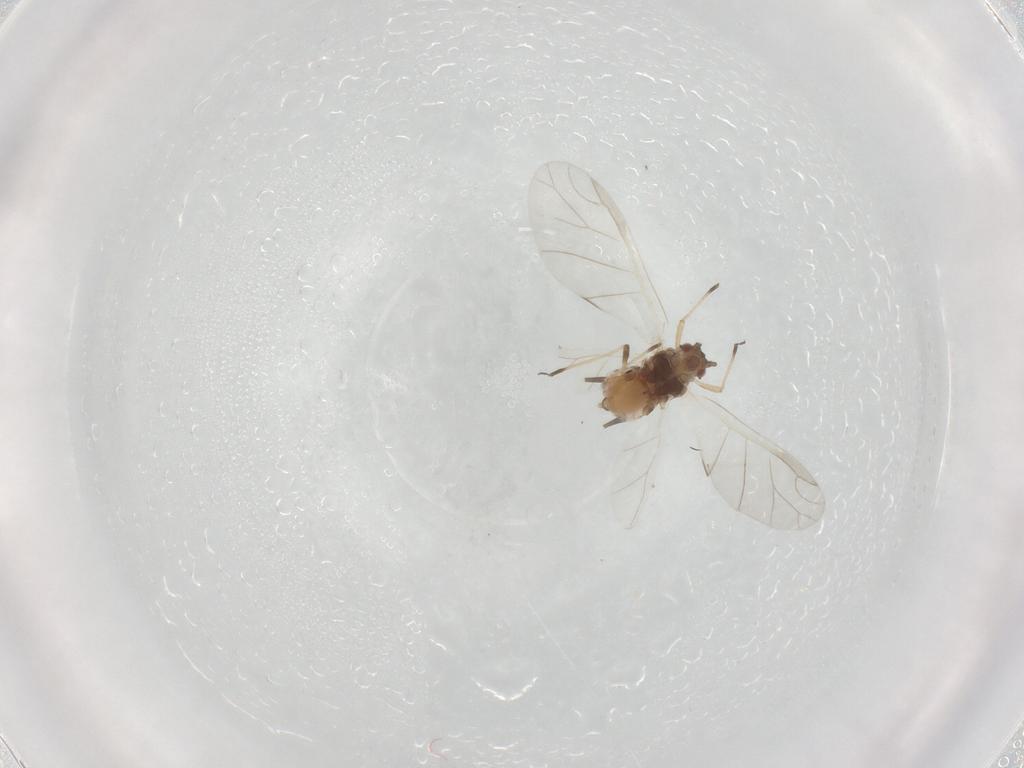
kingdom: Animalia
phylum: Arthropoda
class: Insecta
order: Hemiptera
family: Aphididae
